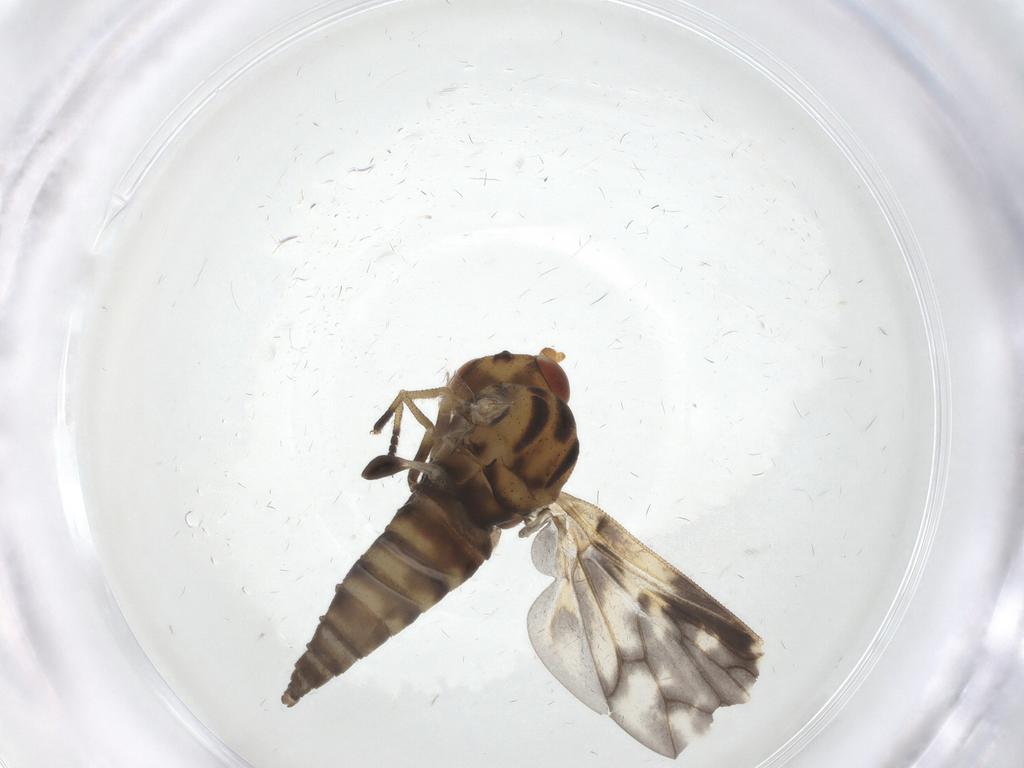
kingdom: Animalia
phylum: Arthropoda
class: Insecta
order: Diptera
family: Austroleptidae
